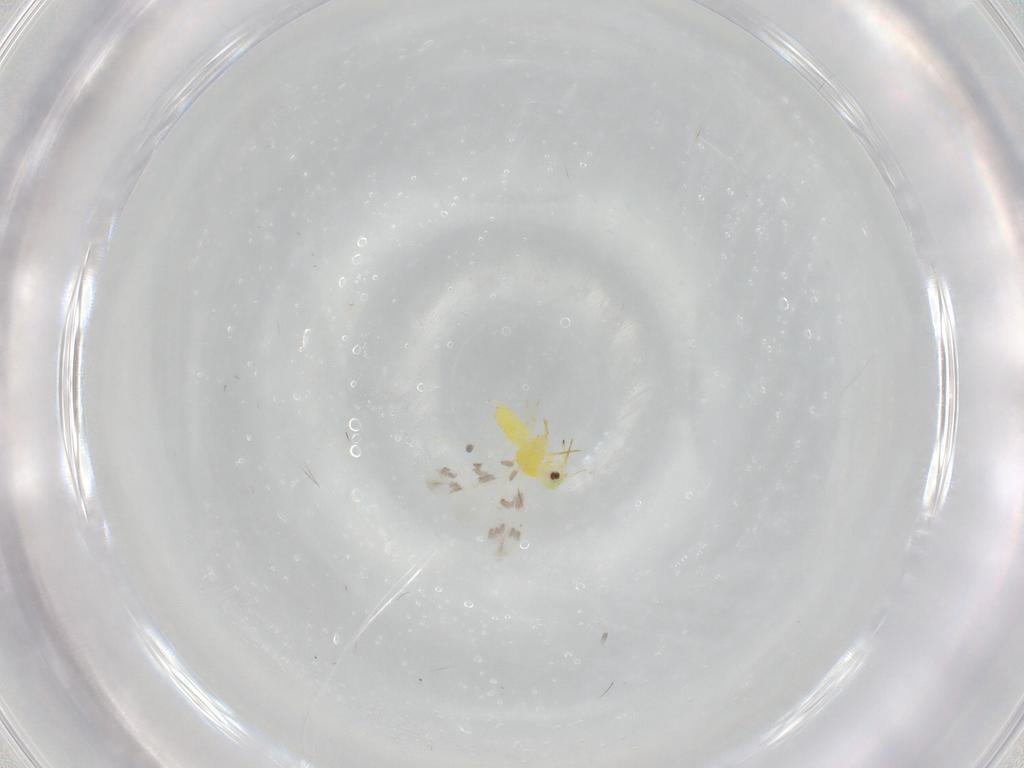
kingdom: Animalia
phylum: Arthropoda
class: Insecta
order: Hemiptera
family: Aleyrodidae
